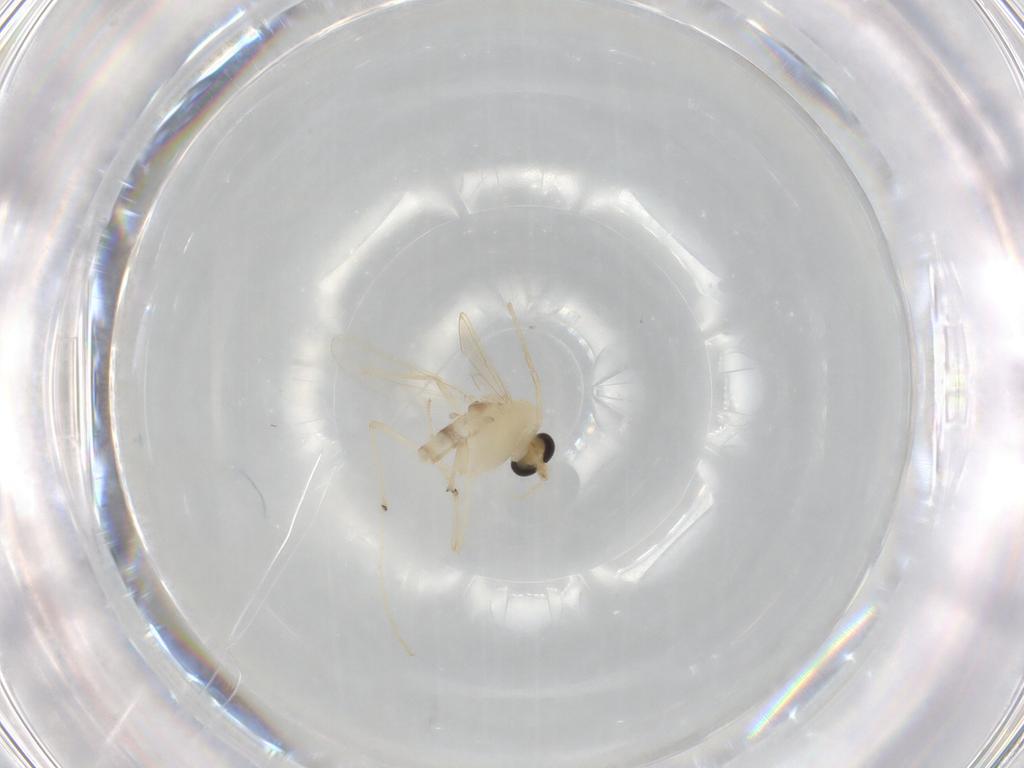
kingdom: Animalia
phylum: Arthropoda
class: Insecta
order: Diptera
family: Chironomidae
